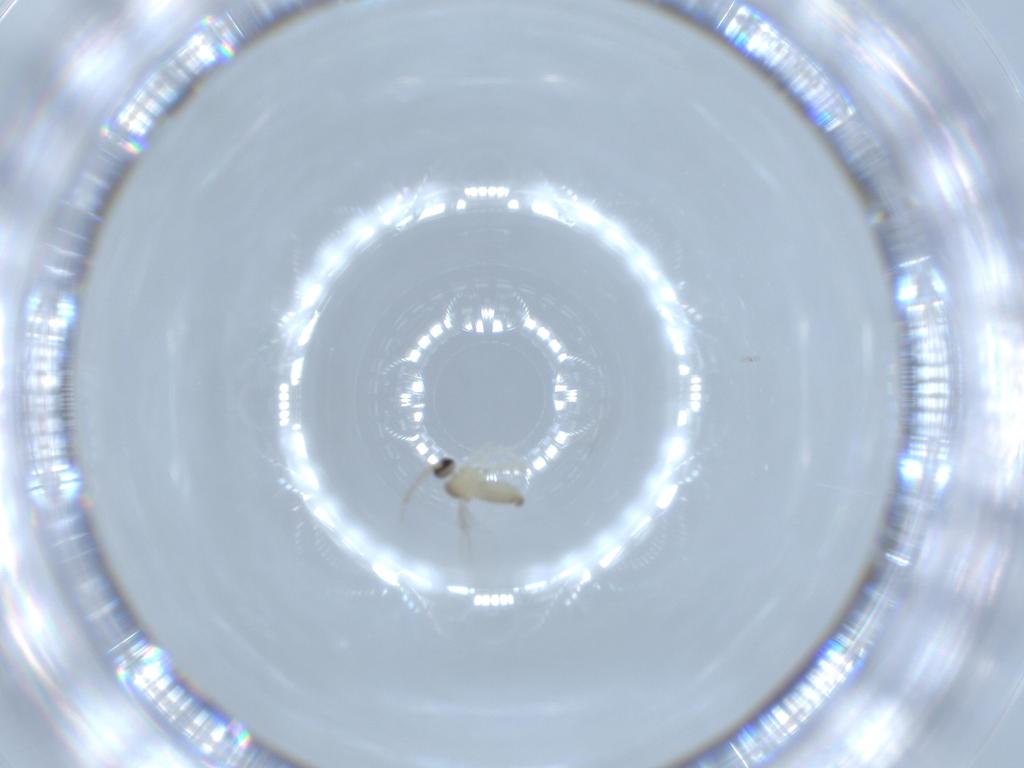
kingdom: Animalia
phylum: Arthropoda
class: Insecta
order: Diptera
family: Cecidomyiidae
